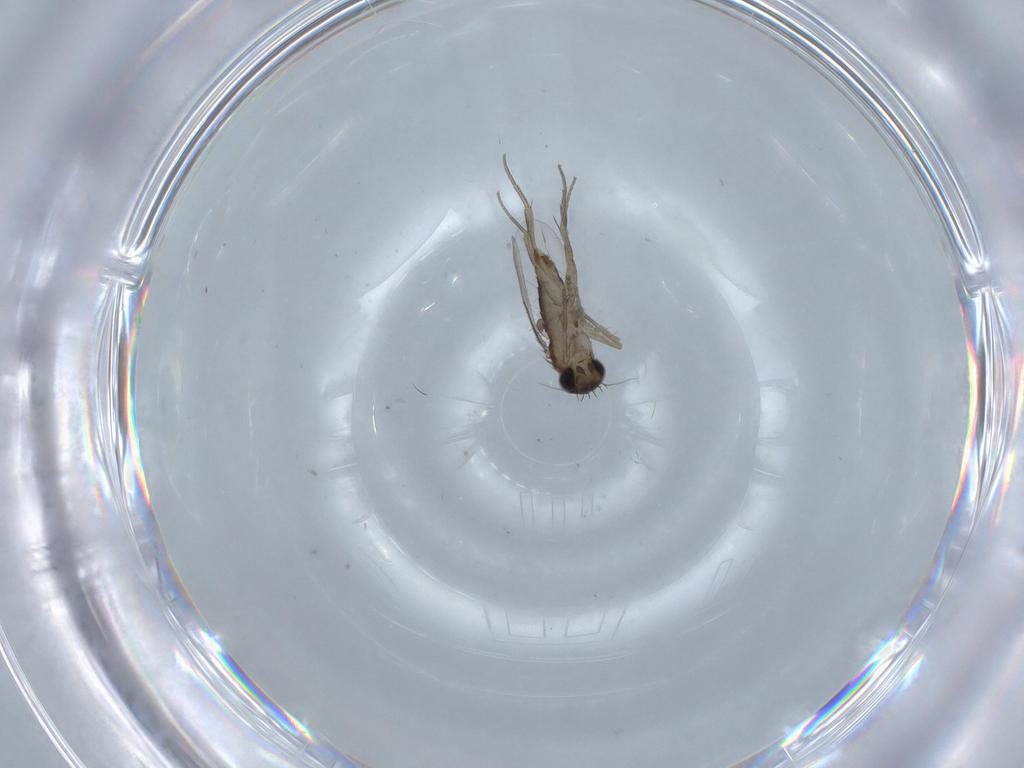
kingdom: Animalia
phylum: Arthropoda
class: Insecta
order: Diptera
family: Phoridae
